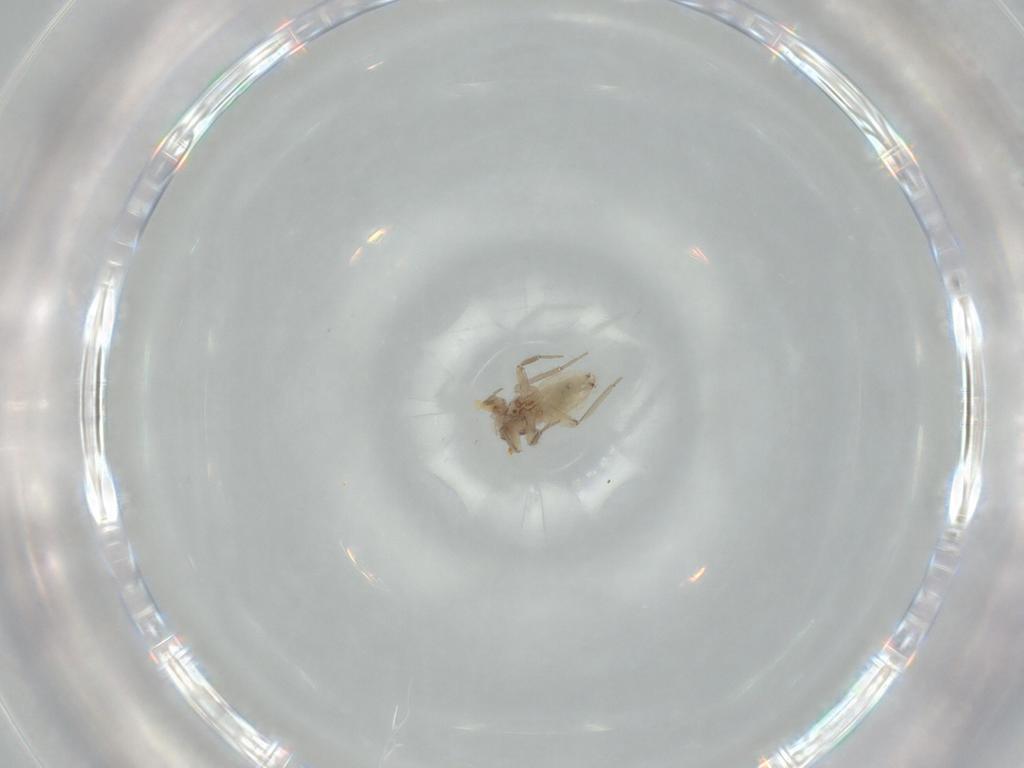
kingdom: Animalia
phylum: Arthropoda
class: Insecta
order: Psocodea
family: Lepidopsocidae
